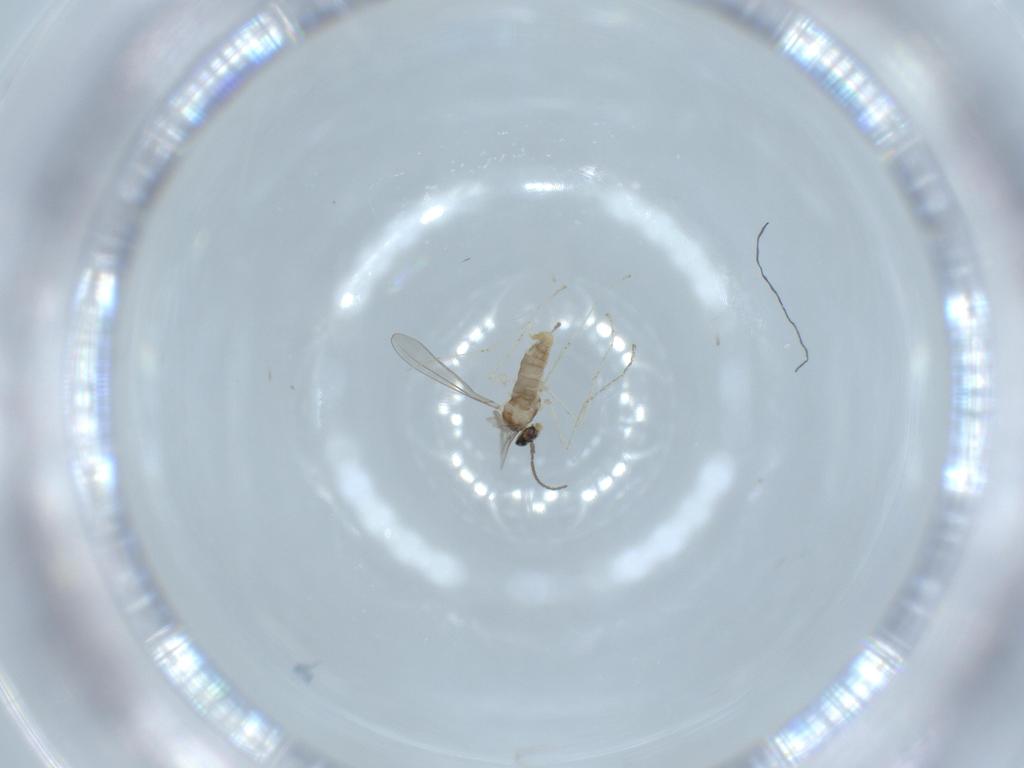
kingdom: Animalia
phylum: Arthropoda
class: Insecta
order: Diptera
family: Cecidomyiidae
